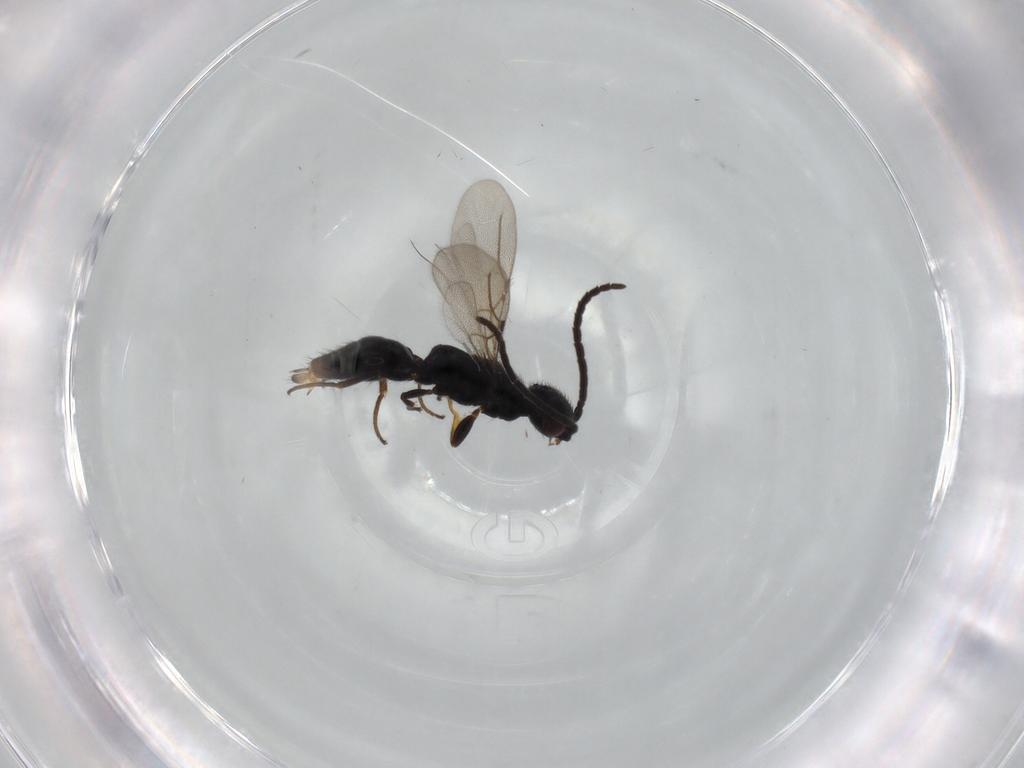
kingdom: Animalia
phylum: Arthropoda
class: Insecta
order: Hymenoptera
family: Bethylidae
